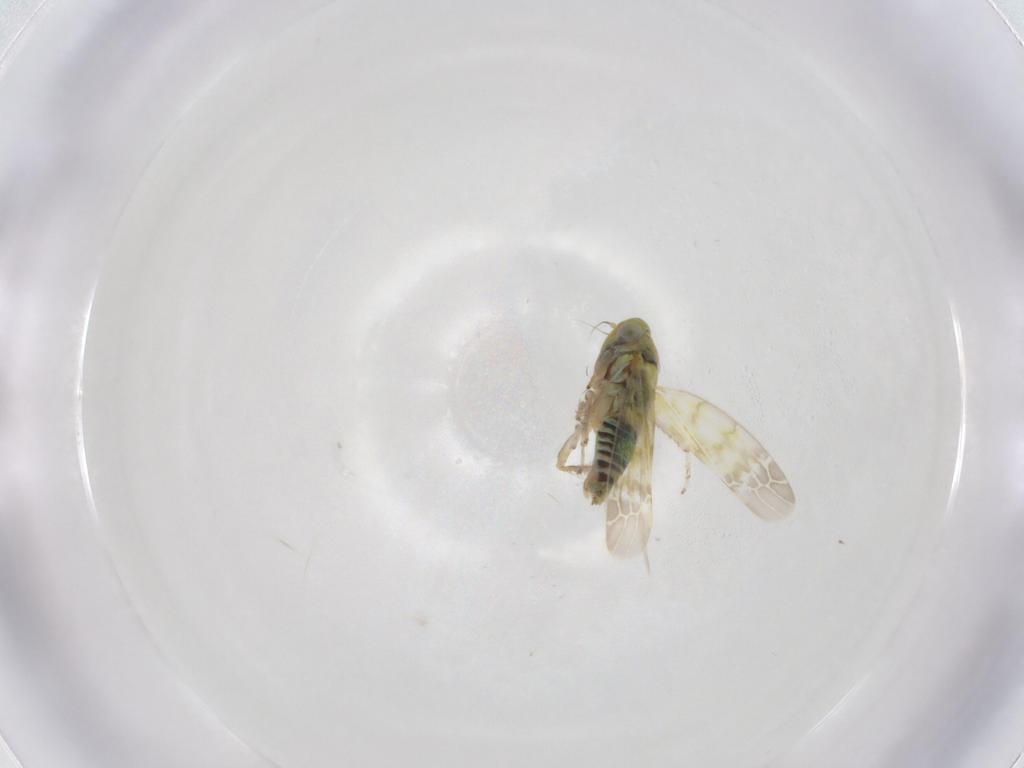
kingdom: Animalia
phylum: Arthropoda
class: Insecta
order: Hemiptera
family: Cicadellidae
